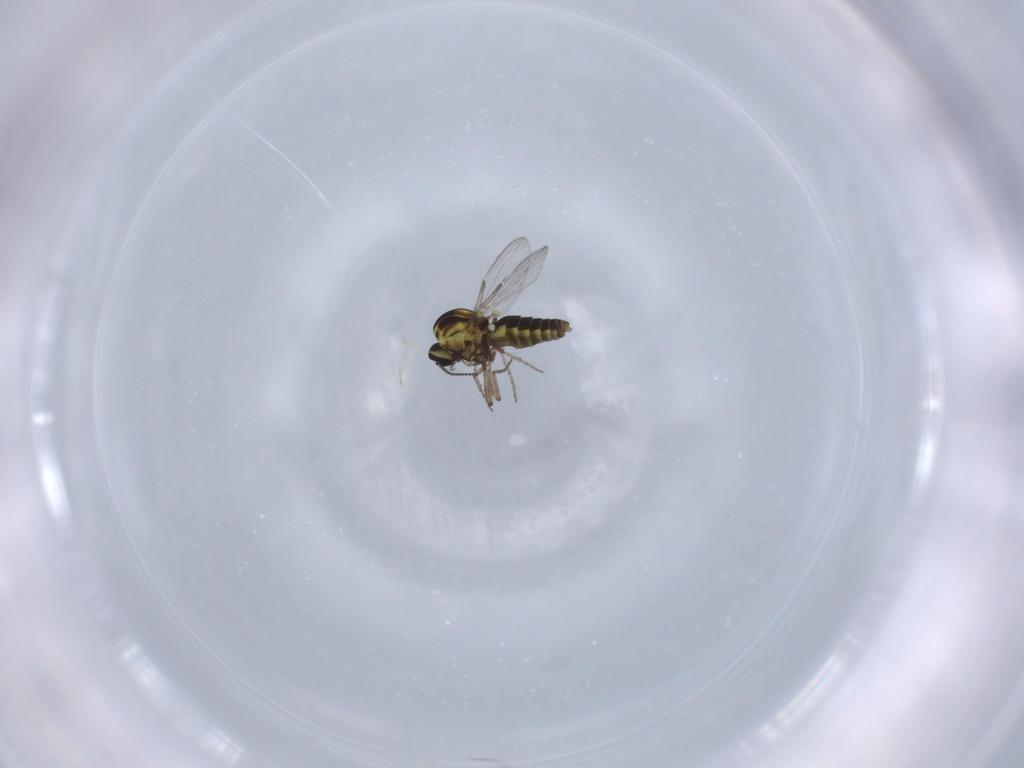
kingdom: Animalia
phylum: Arthropoda
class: Insecta
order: Diptera
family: Ceratopogonidae
